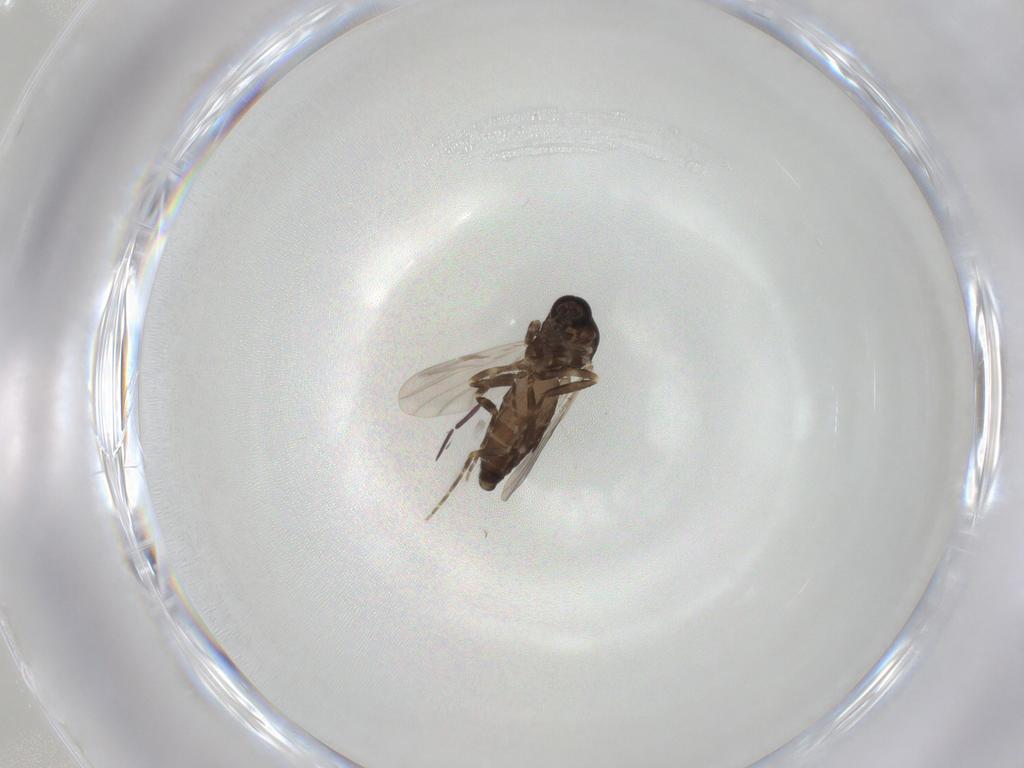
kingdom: Animalia
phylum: Arthropoda
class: Insecta
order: Diptera
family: Ceratopogonidae
